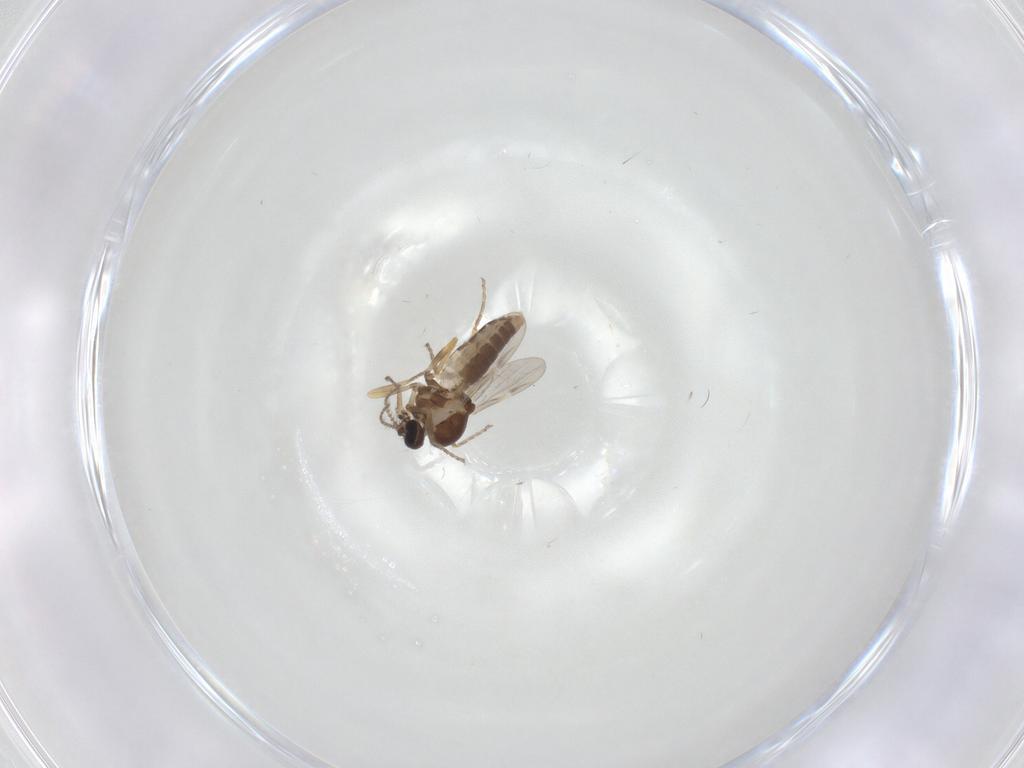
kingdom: Animalia
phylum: Arthropoda
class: Insecta
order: Diptera
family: Ceratopogonidae
